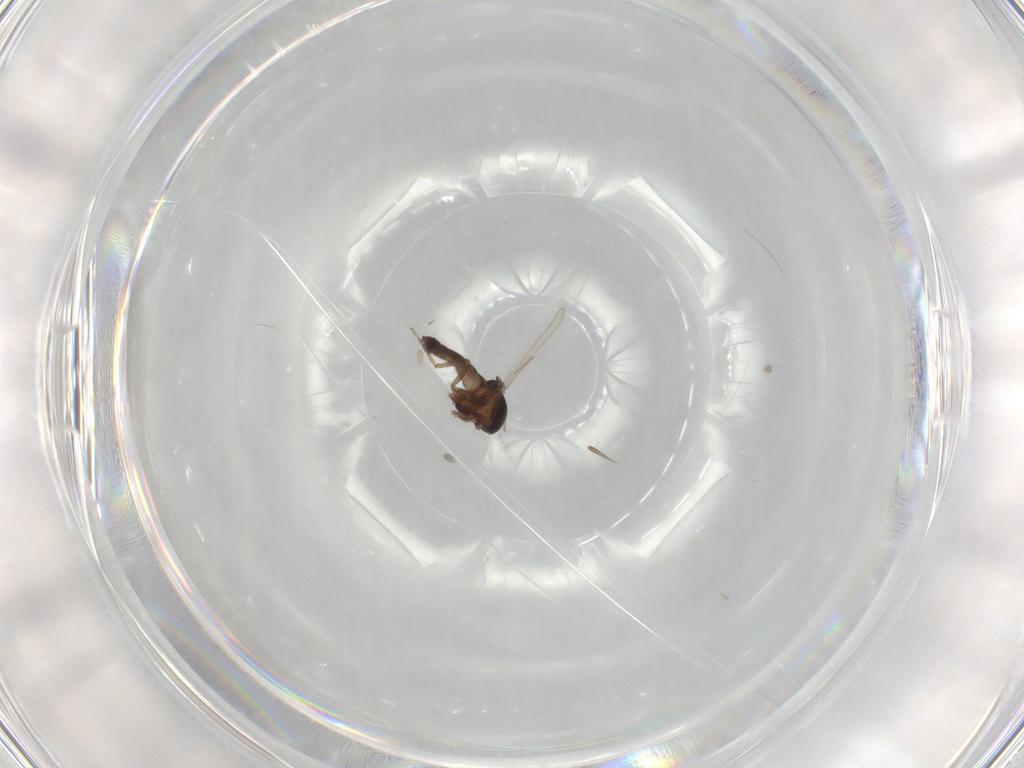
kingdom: Animalia
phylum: Arthropoda
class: Insecta
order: Diptera
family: Ceratopogonidae
